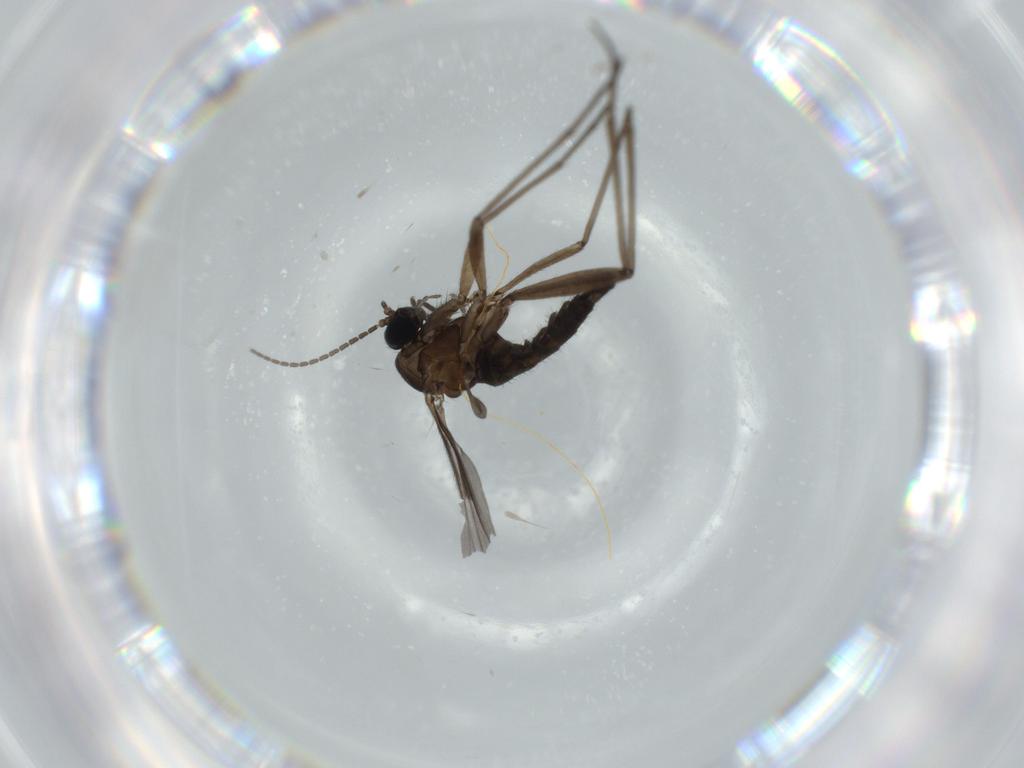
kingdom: Animalia
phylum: Arthropoda
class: Insecta
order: Diptera
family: Sciaridae
